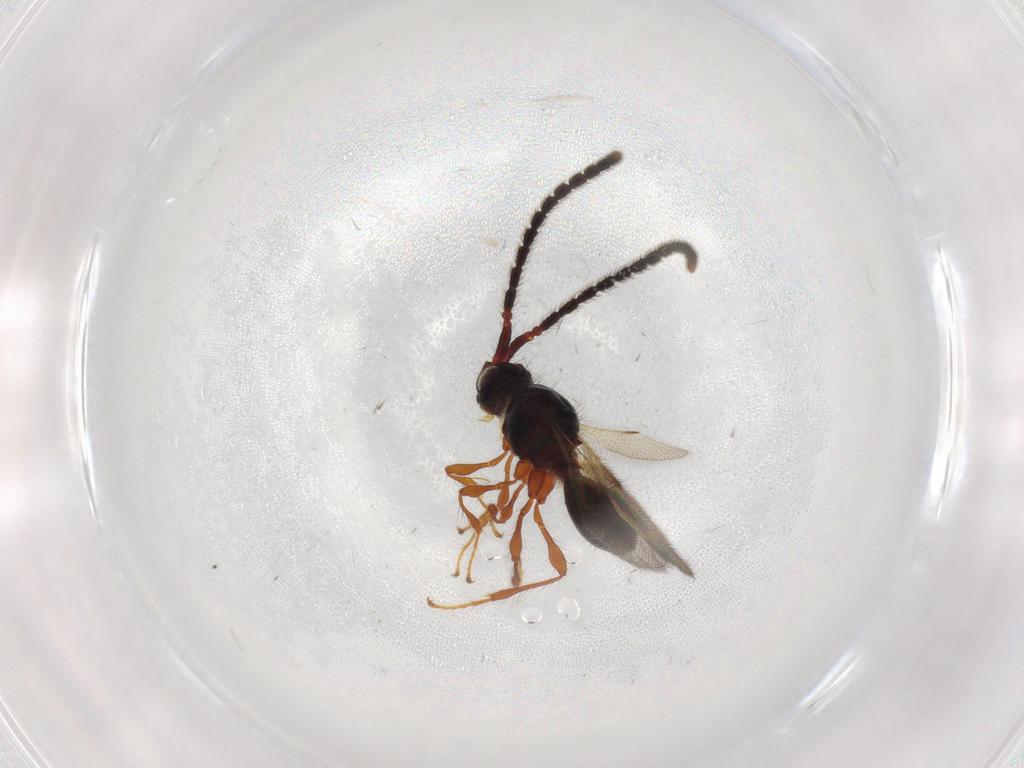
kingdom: Animalia
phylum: Arthropoda
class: Insecta
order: Hymenoptera
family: Diapriidae
